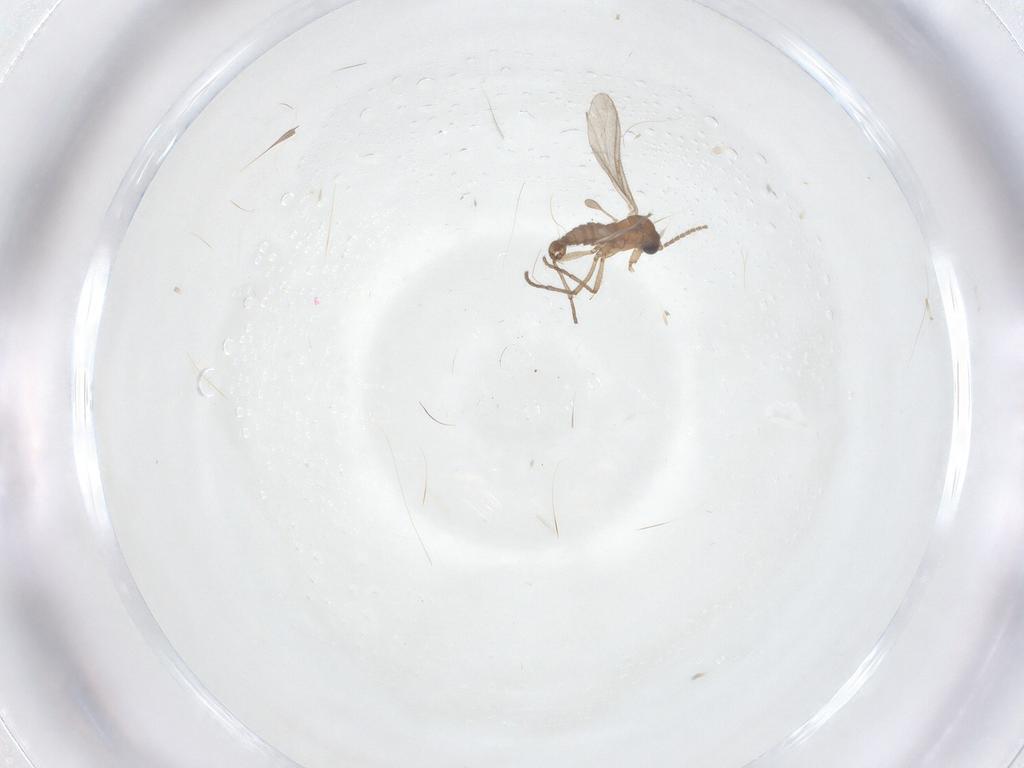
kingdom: Animalia
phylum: Arthropoda
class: Insecta
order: Diptera
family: Sciaridae
